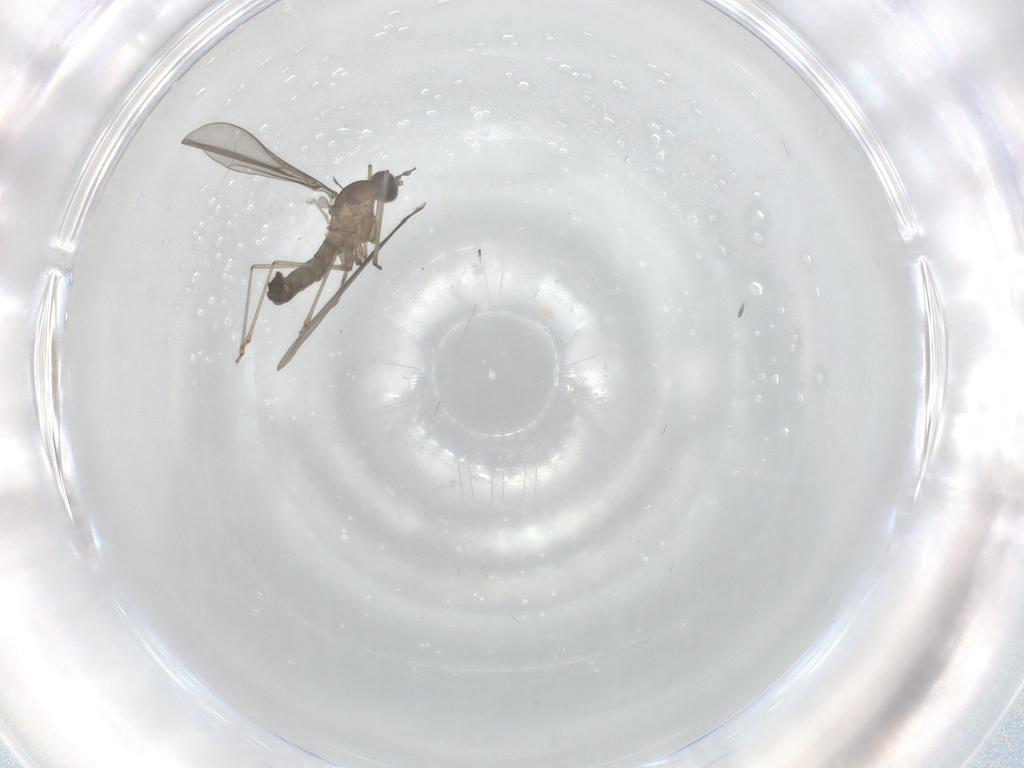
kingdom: Animalia
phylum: Arthropoda
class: Insecta
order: Diptera
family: Cecidomyiidae
